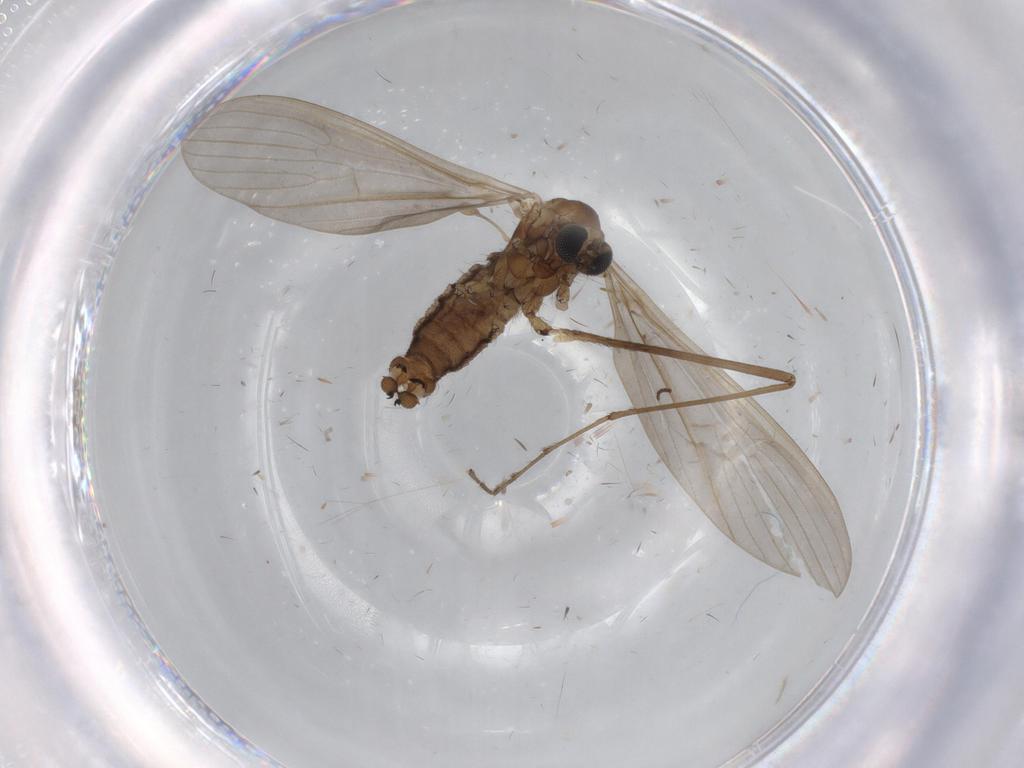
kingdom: Animalia
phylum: Arthropoda
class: Insecta
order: Diptera
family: Limoniidae
